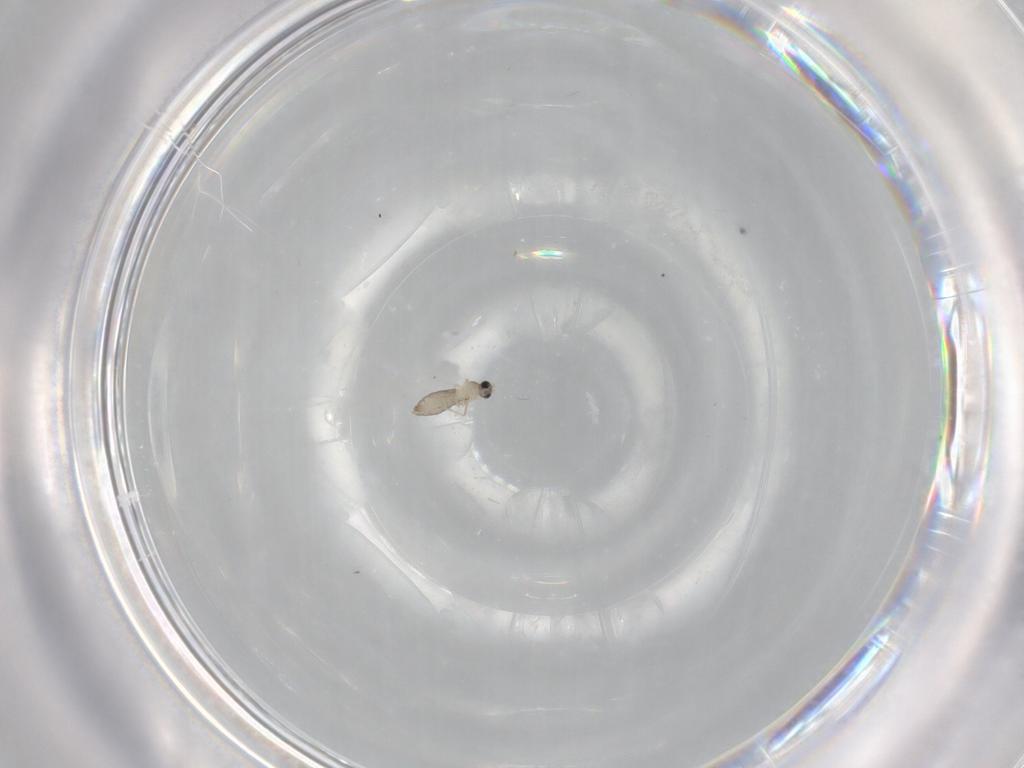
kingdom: Animalia
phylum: Arthropoda
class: Insecta
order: Diptera
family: Cecidomyiidae
